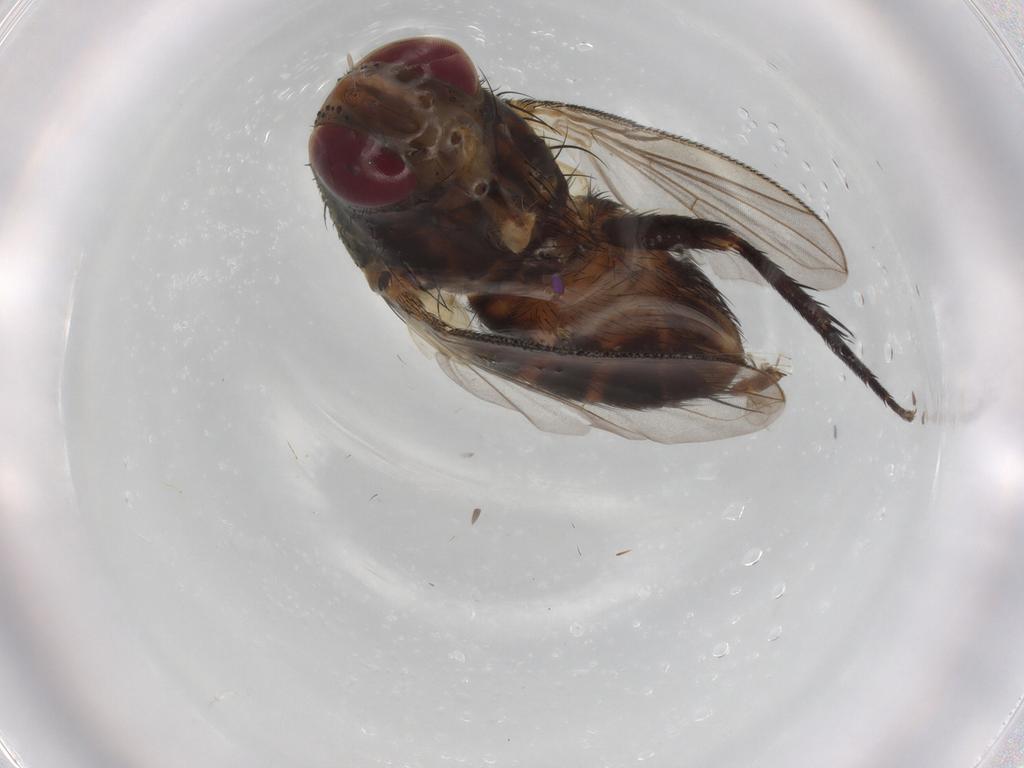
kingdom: Animalia
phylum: Arthropoda
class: Insecta
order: Diptera
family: Cecidomyiidae
